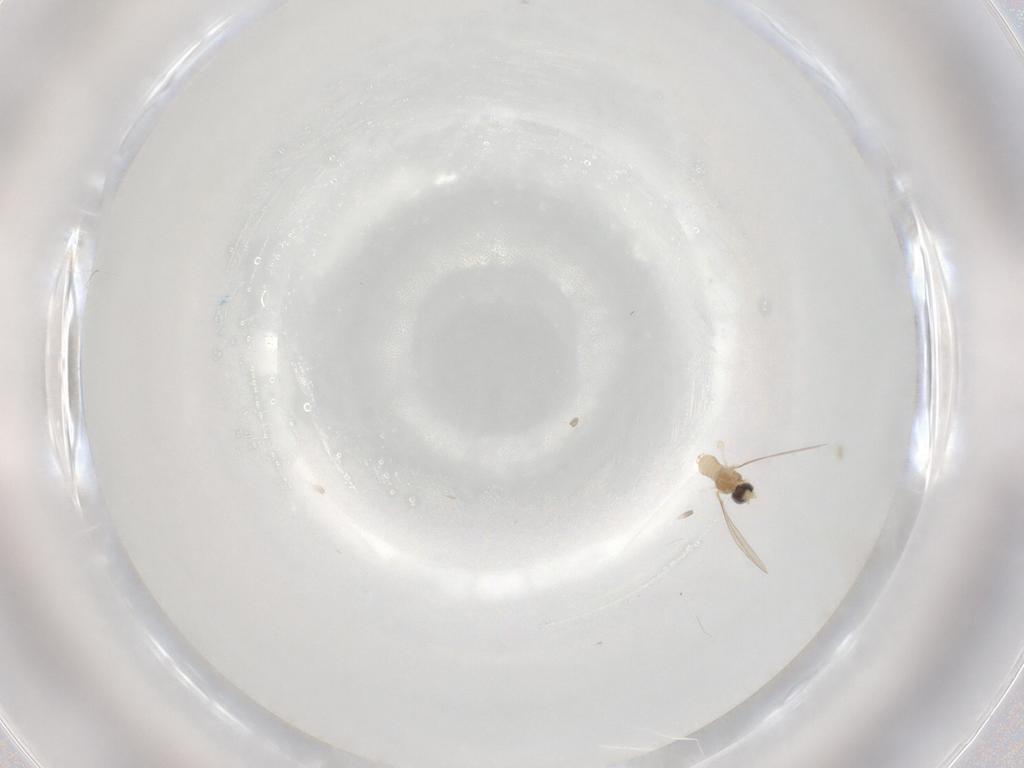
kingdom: Animalia
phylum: Arthropoda
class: Insecta
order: Diptera
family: Cecidomyiidae
